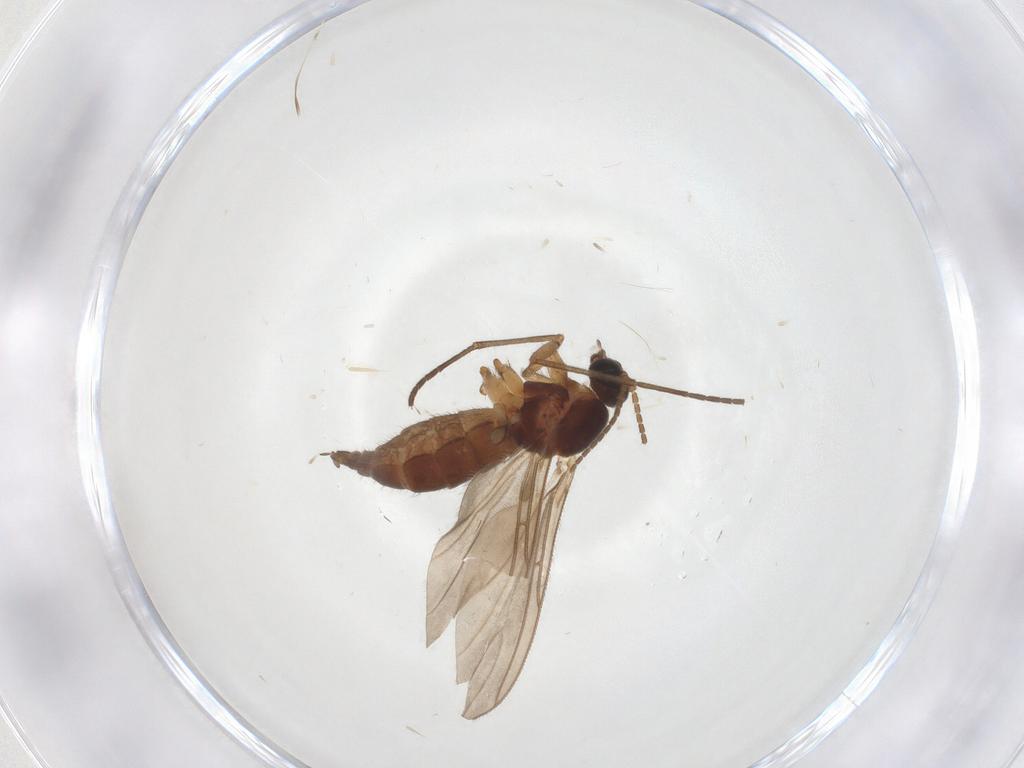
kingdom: Animalia
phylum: Arthropoda
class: Insecta
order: Diptera
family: Sciaridae
